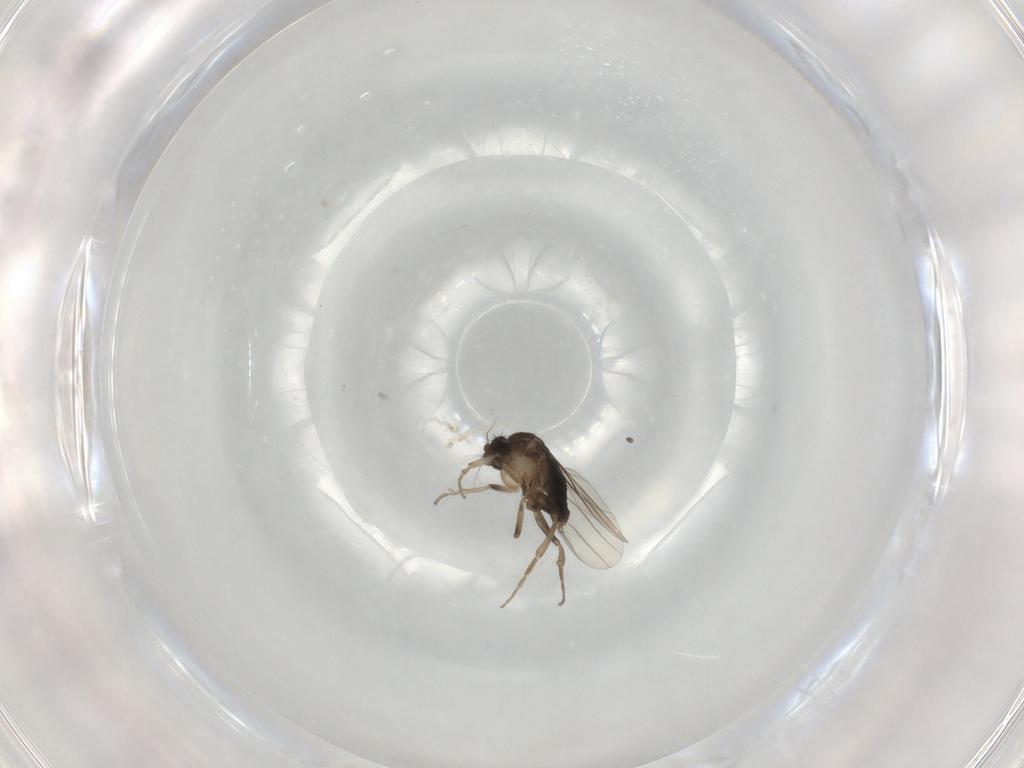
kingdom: Animalia
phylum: Arthropoda
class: Insecta
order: Diptera
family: Phoridae
